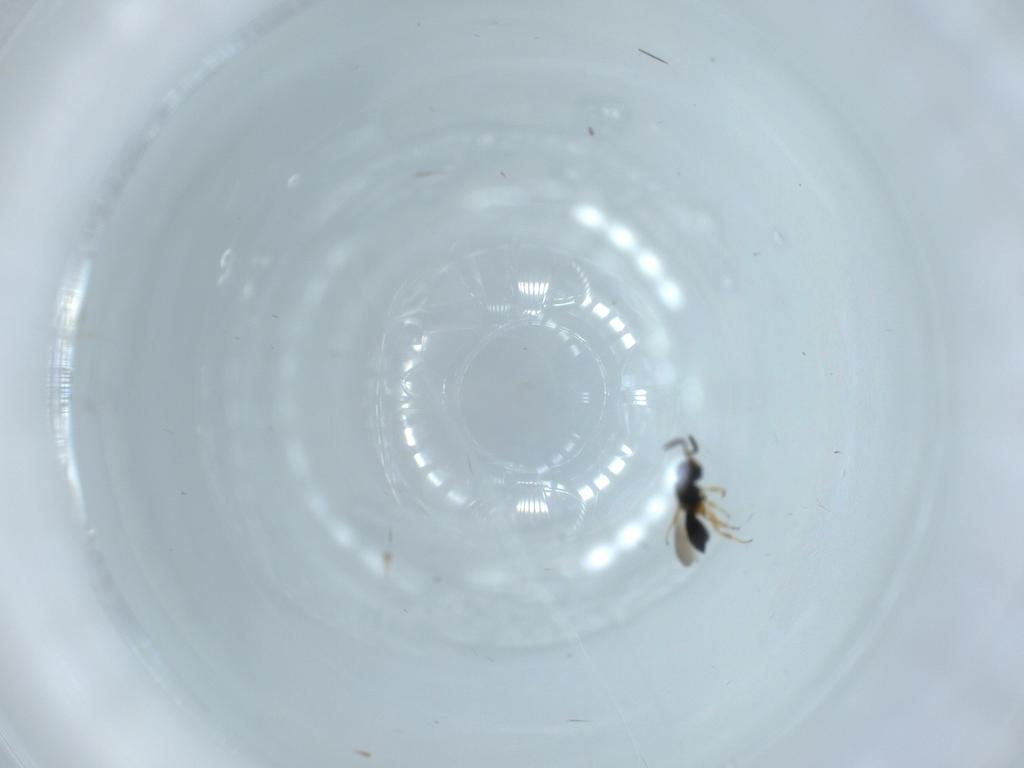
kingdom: Animalia
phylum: Arthropoda
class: Insecta
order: Hymenoptera
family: Scelionidae
